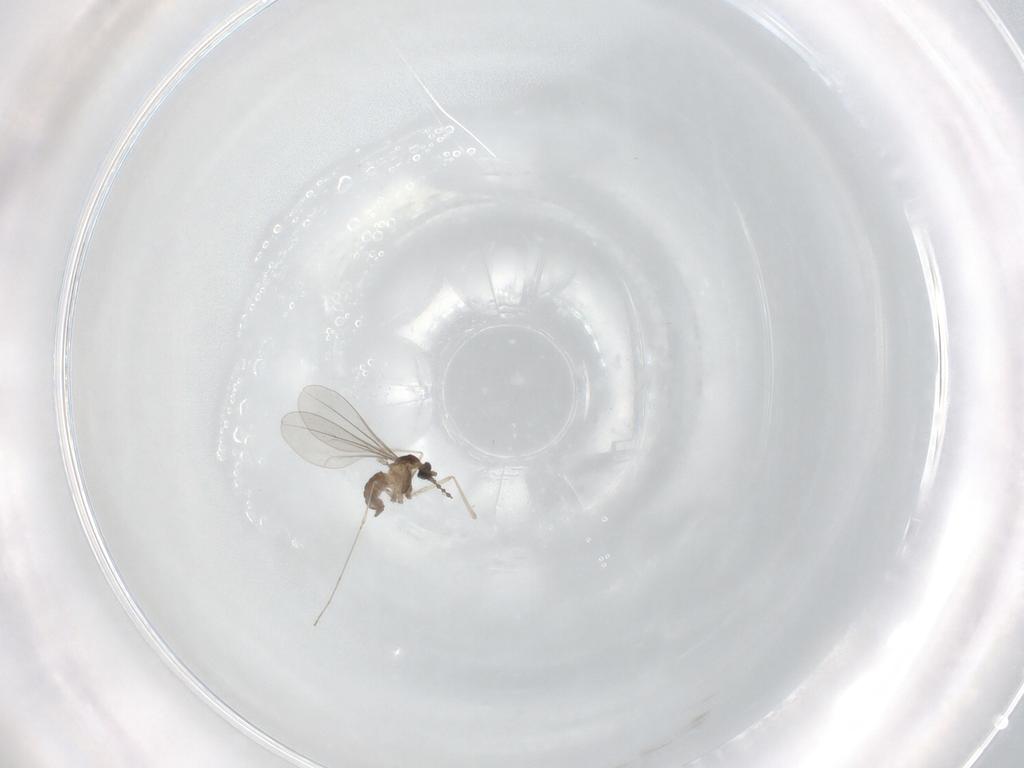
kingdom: Animalia
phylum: Arthropoda
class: Insecta
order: Diptera
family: Cecidomyiidae
